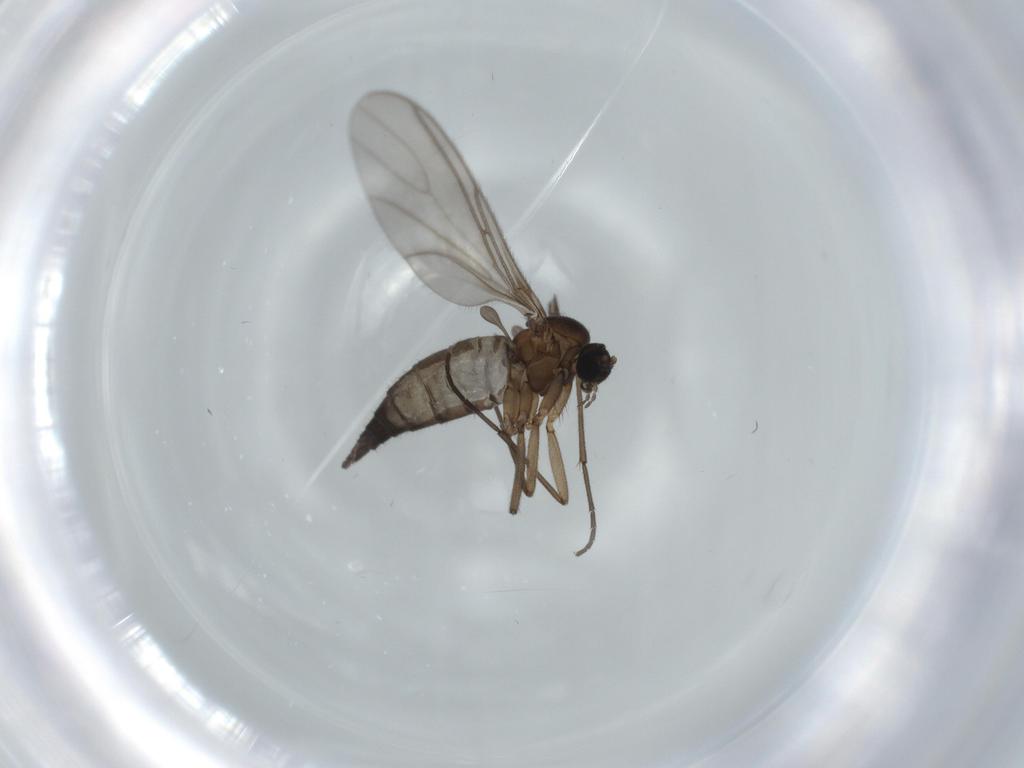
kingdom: Animalia
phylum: Arthropoda
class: Insecta
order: Diptera
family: Sciaridae
